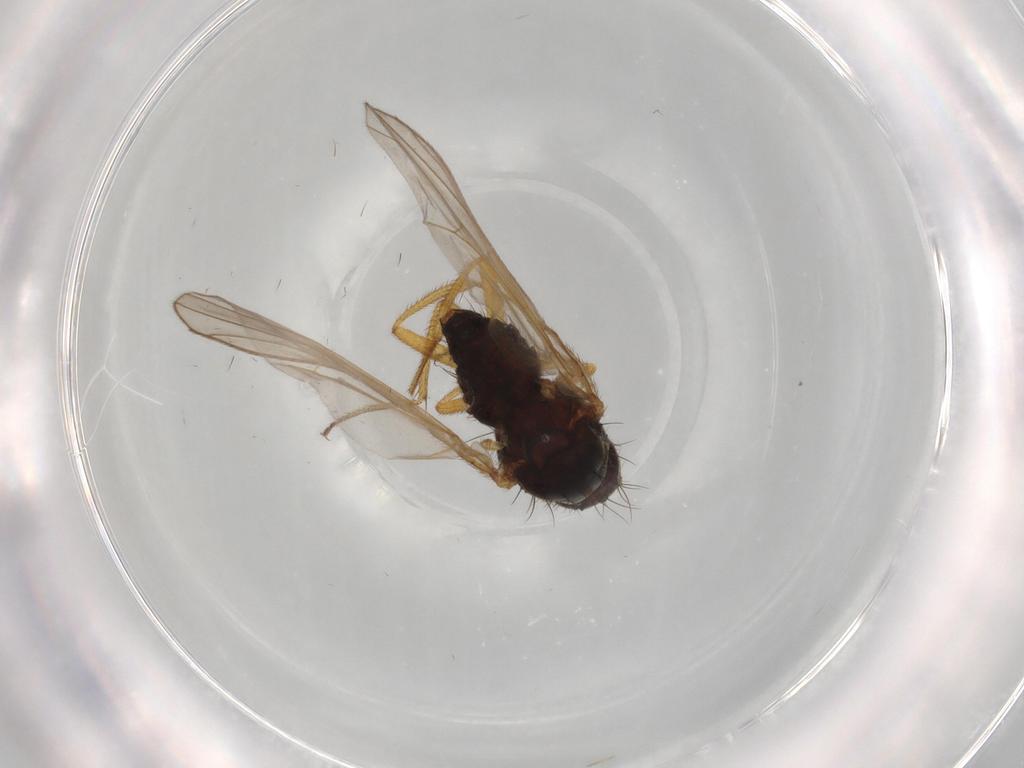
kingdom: Animalia
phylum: Arthropoda
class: Insecta
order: Diptera
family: Drosophilidae
